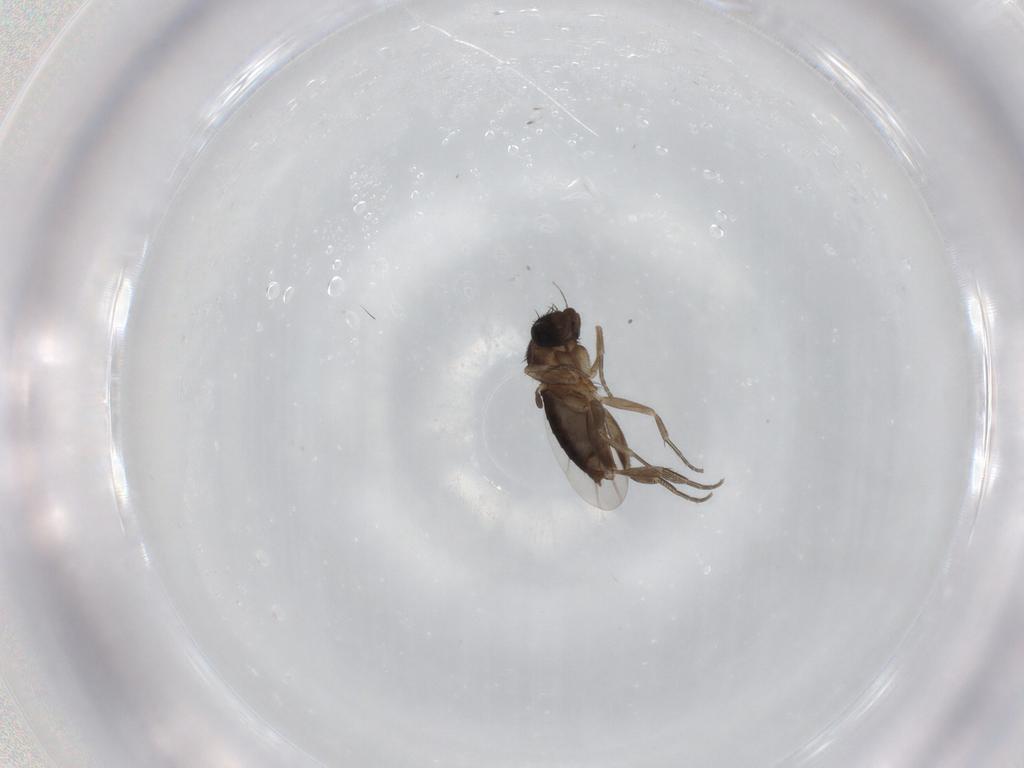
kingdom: Animalia
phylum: Arthropoda
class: Insecta
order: Diptera
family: Phoridae
